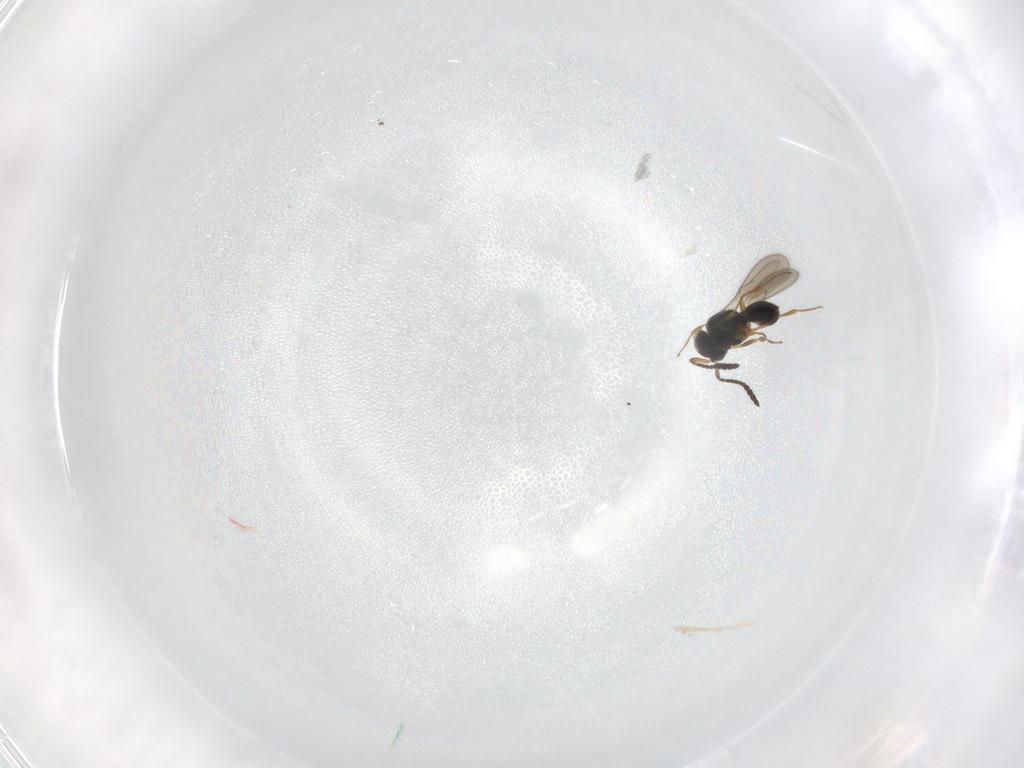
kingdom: Animalia
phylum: Arthropoda
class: Insecta
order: Hymenoptera
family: Scelionidae
